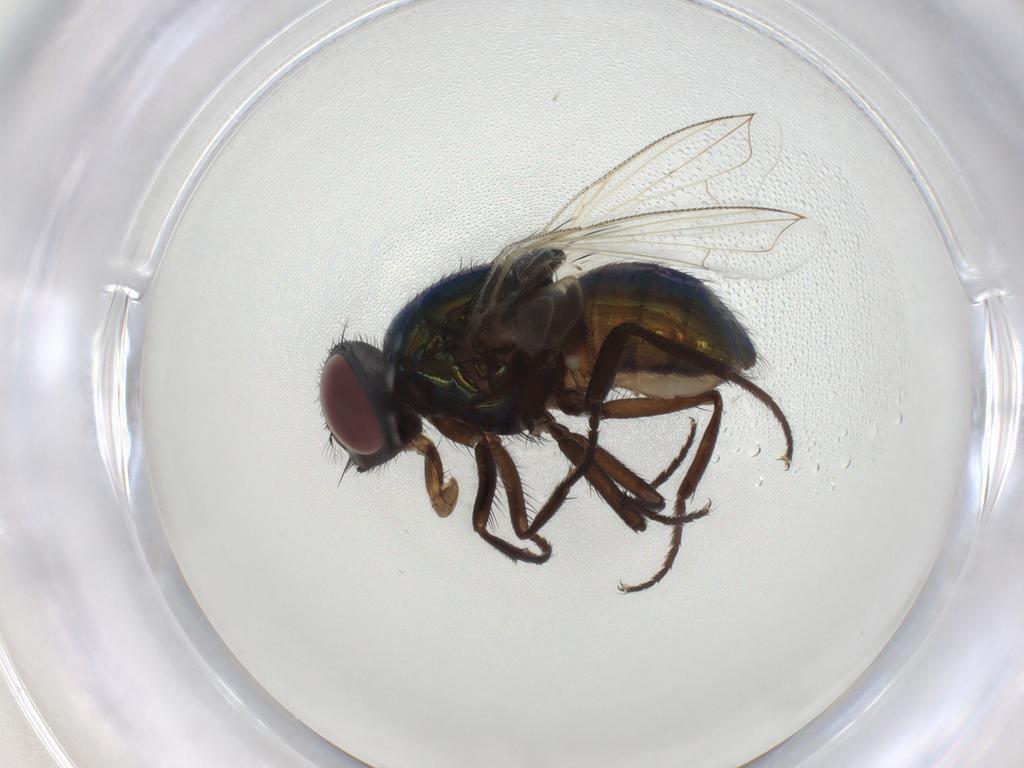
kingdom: Animalia
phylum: Arthropoda
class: Insecta
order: Diptera
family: Muscidae
